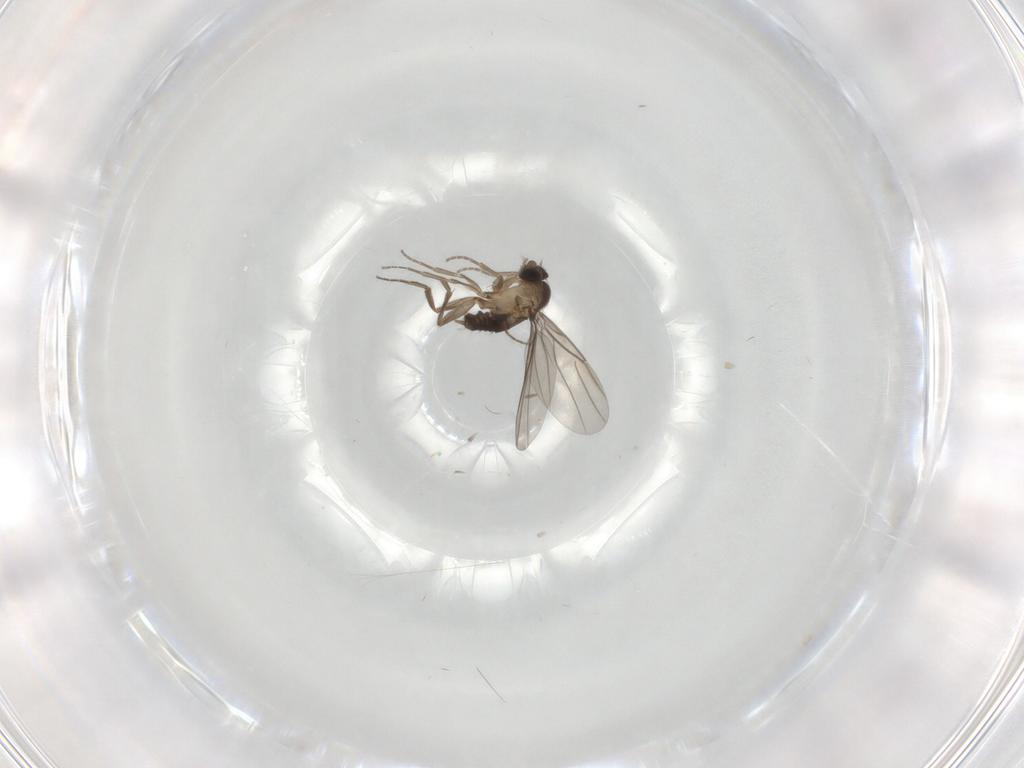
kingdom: Animalia
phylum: Arthropoda
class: Insecta
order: Diptera
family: Phoridae
